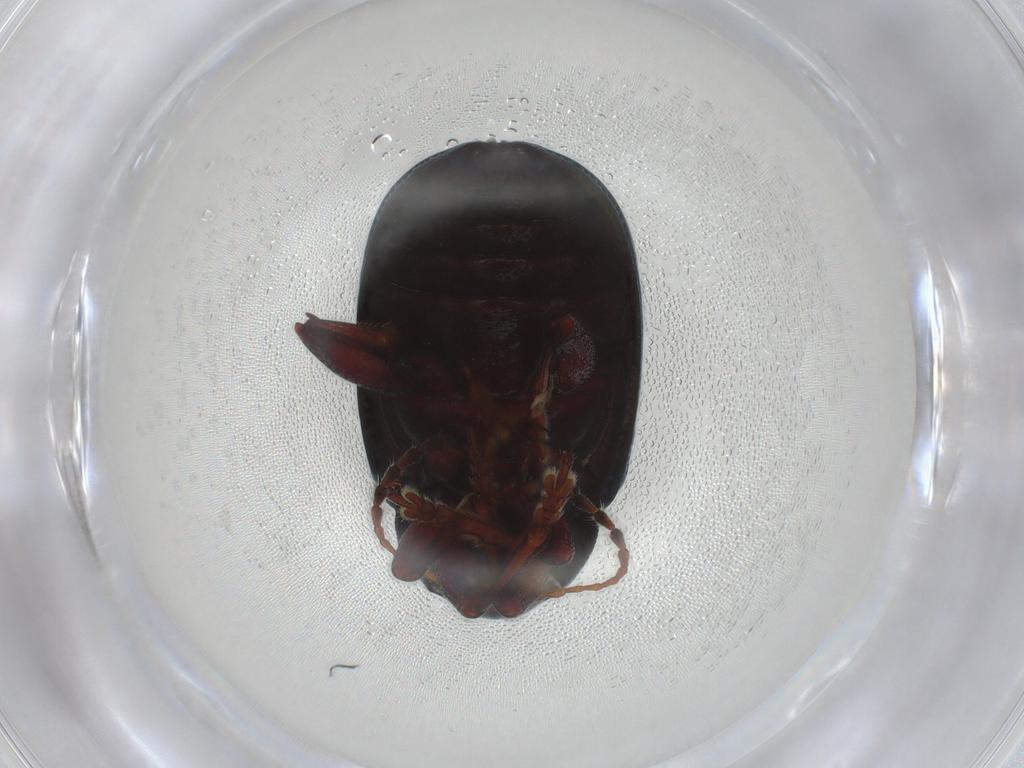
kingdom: Animalia
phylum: Arthropoda
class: Insecta
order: Coleoptera
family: Chrysomelidae
